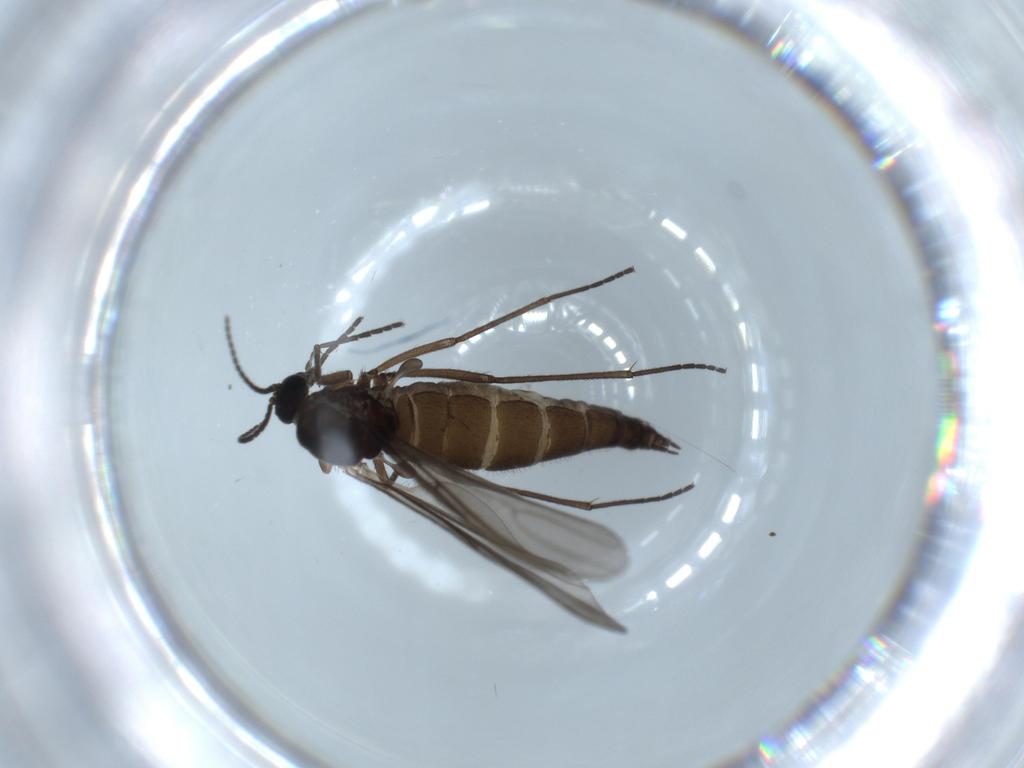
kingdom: Animalia
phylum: Arthropoda
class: Insecta
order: Diptera
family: Sciaridae
